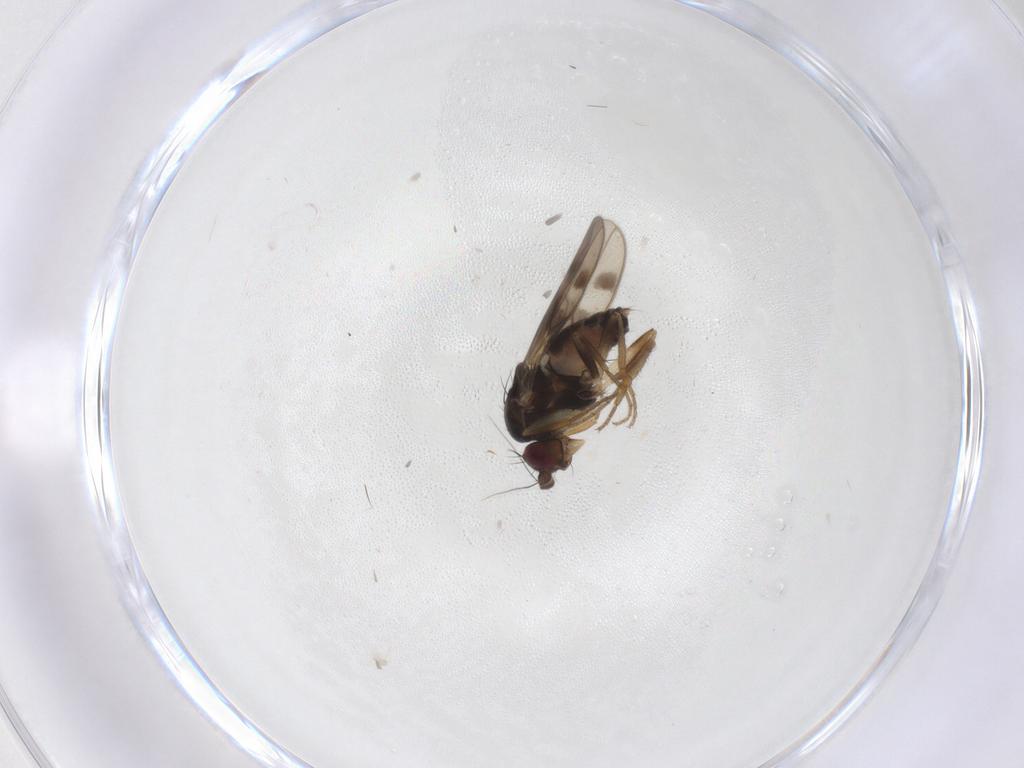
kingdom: Animalia
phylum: Arthropoda
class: Insecta
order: Diptera
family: Sphaeroceridae
